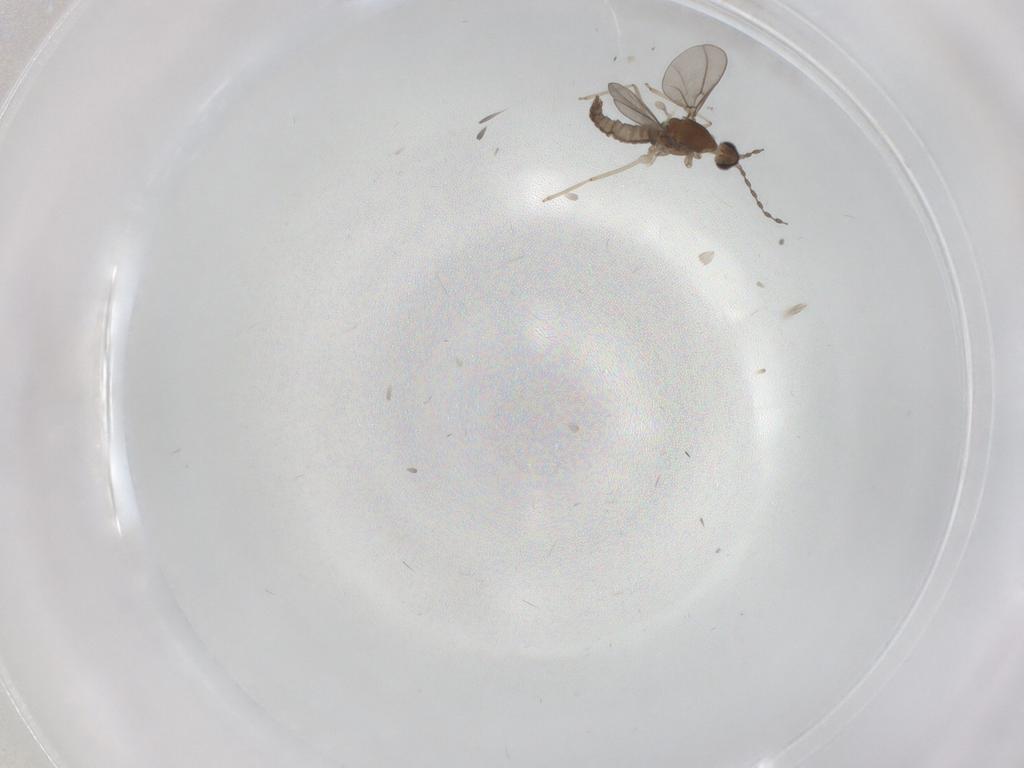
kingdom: Animalia
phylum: Arthropoda
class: Insecta
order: Diptera
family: Cecidomyiidae
